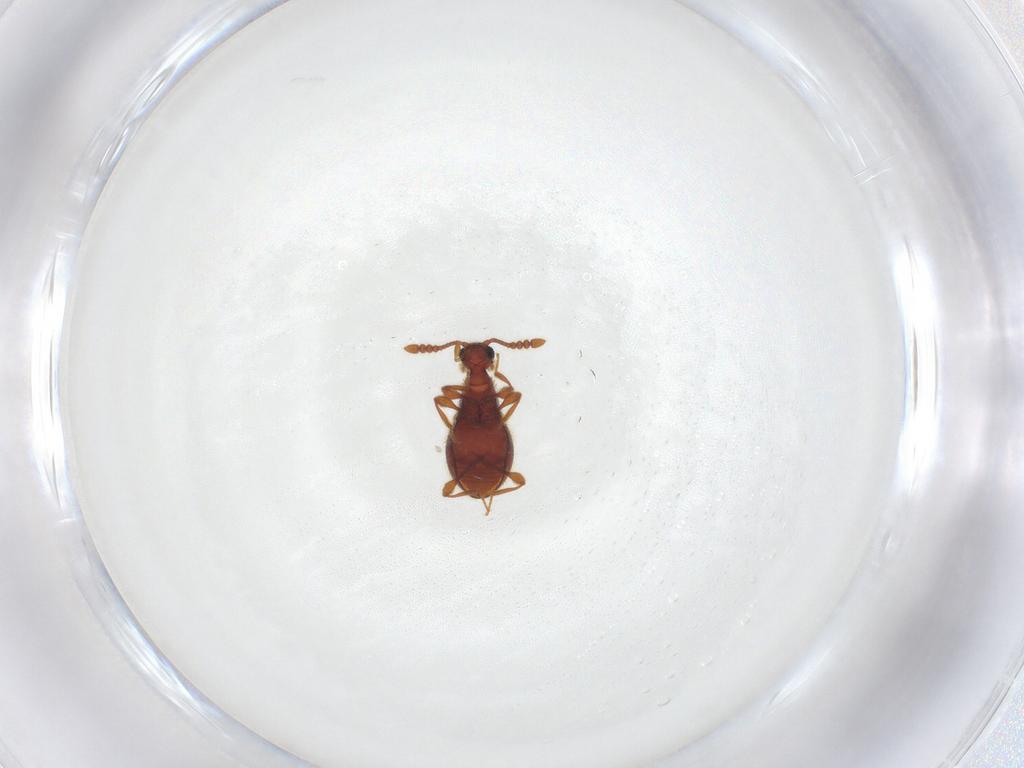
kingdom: Animalia
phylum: Arthropoda
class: Insecta
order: Coleoptera
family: Staphylinidae
